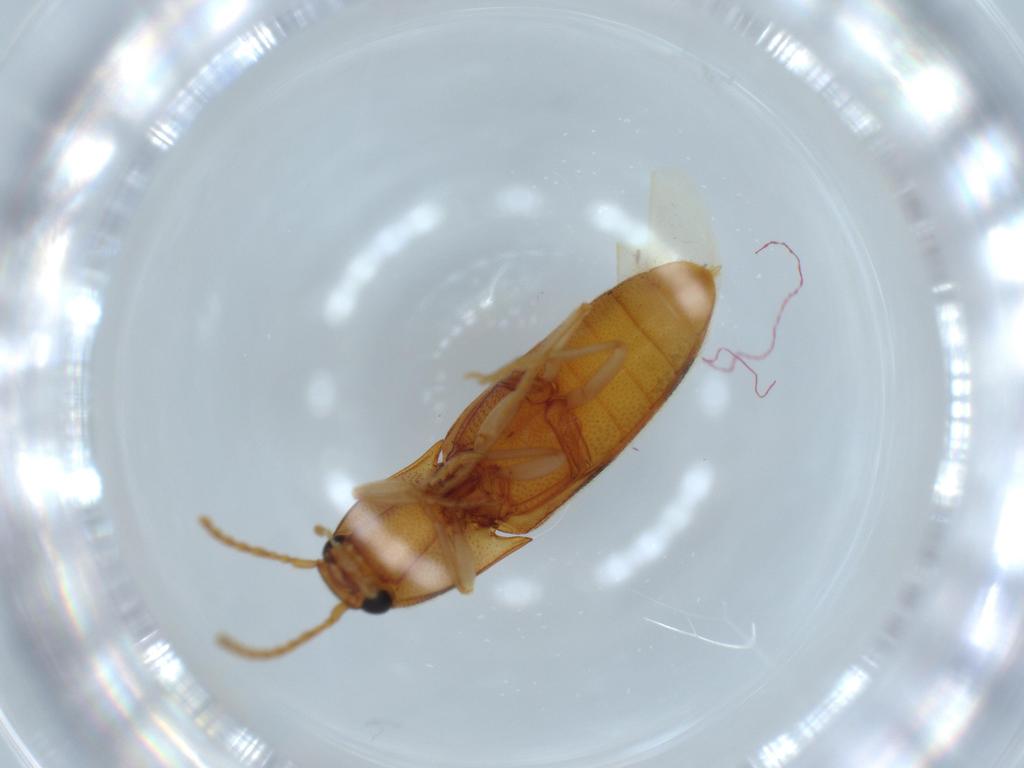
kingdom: Animalia
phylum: Arthropoda
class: Insecta
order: Coleoptera
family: Elateridae
